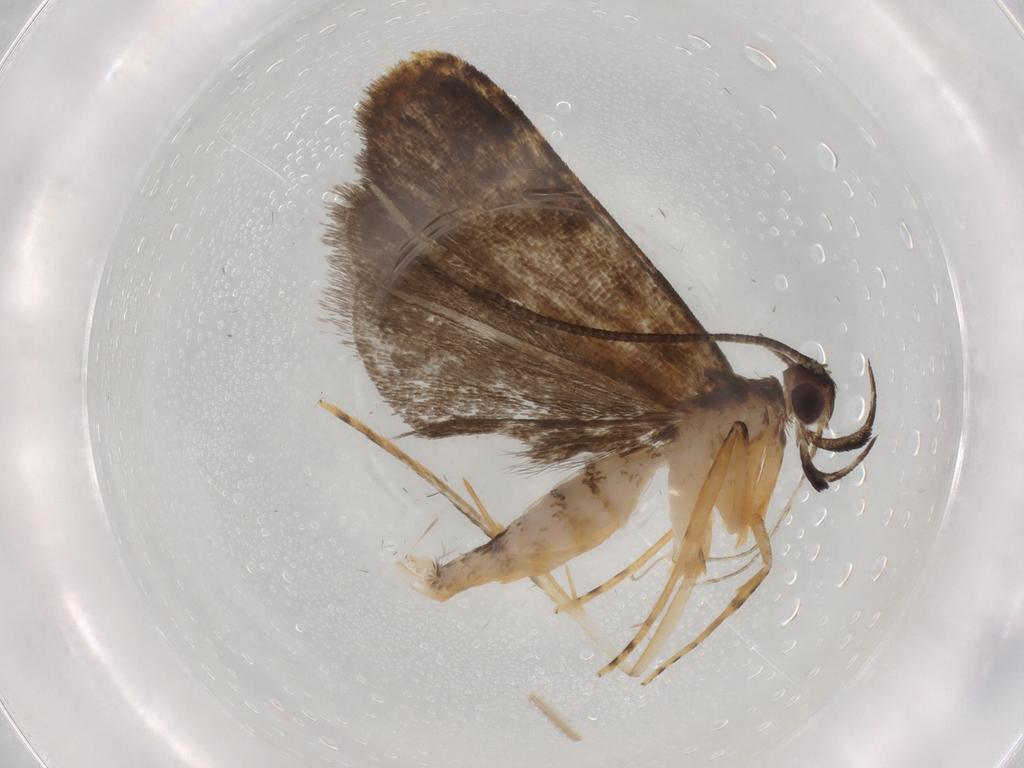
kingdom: Animalia
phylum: Arthropoda
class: Insecta
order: Lepidoptera
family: Cosmopterigidae
